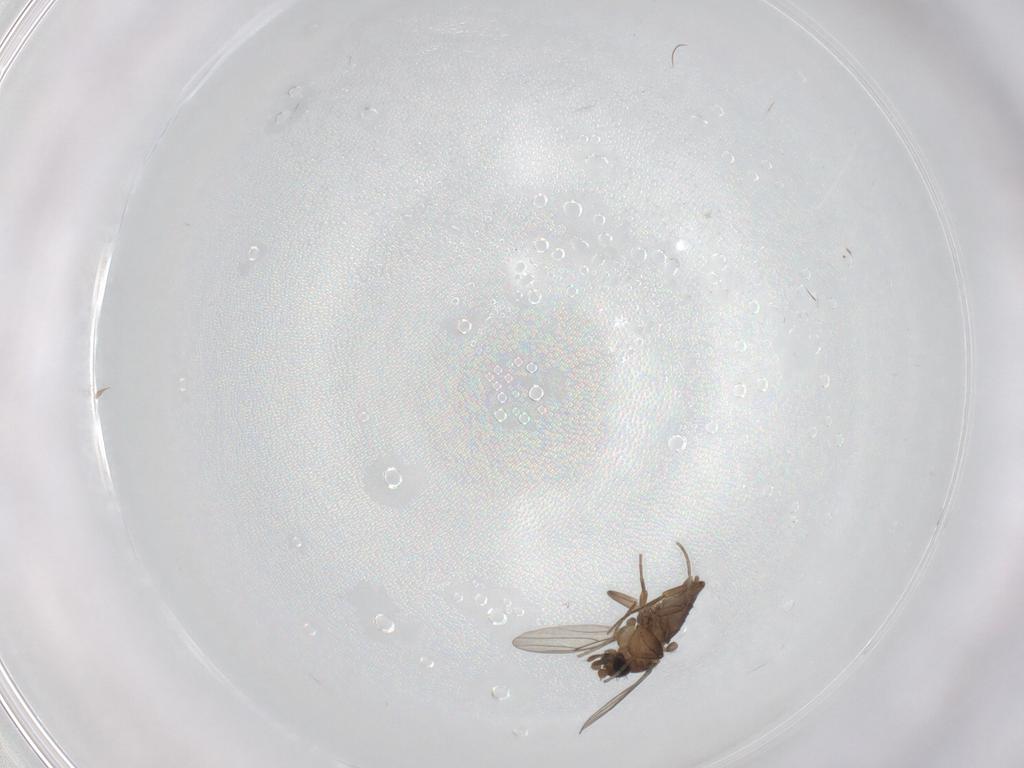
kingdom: Animalia
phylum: Arthropoda
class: Insecta
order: Diptera
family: Phoridae
